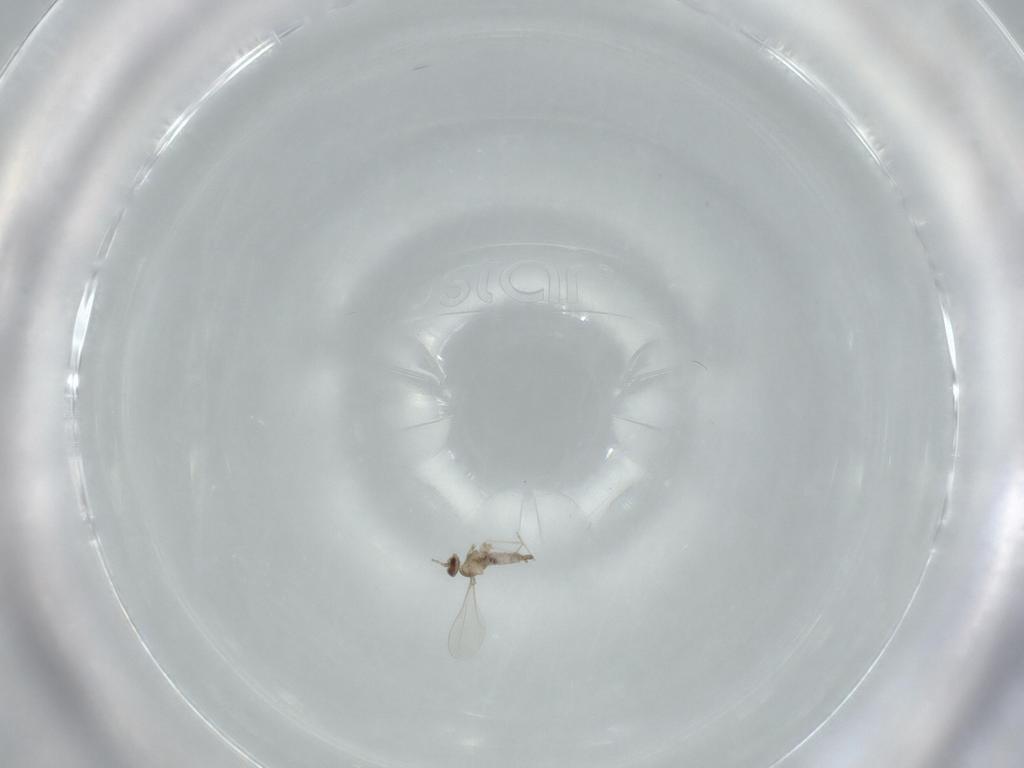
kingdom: Animalia
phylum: Arthropoda
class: Insecta
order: Diptera
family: Cecidomyiidae
